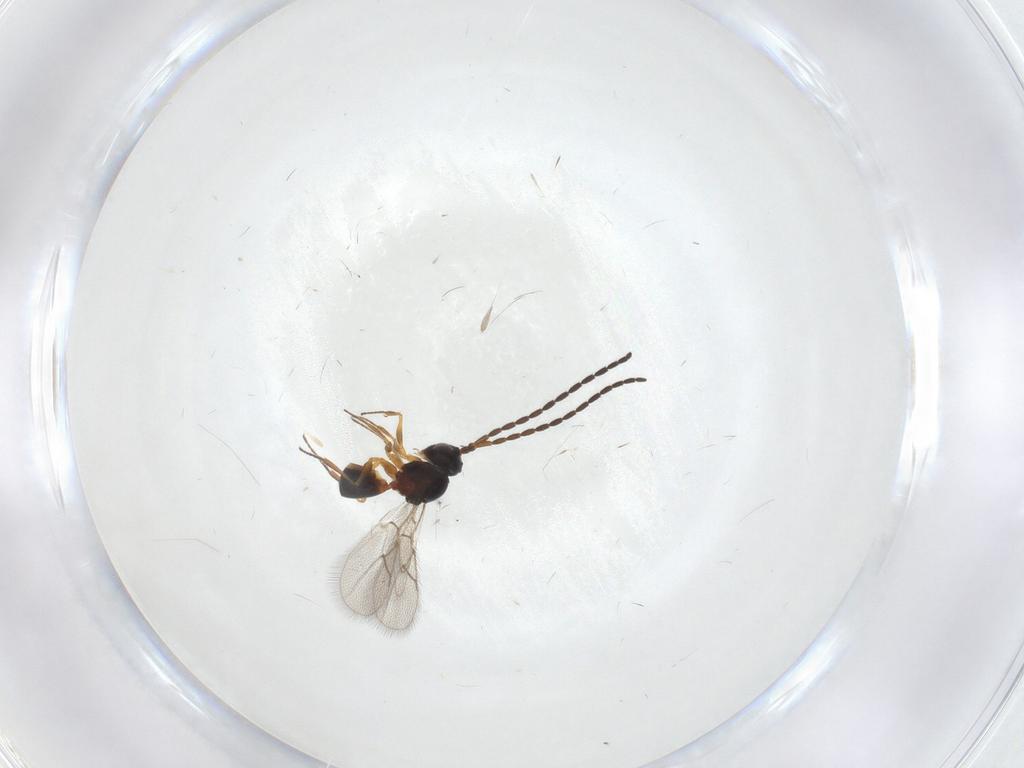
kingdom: Animalia
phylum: Arthropoda
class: Insecta
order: Hymenoptera
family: Figitidae
